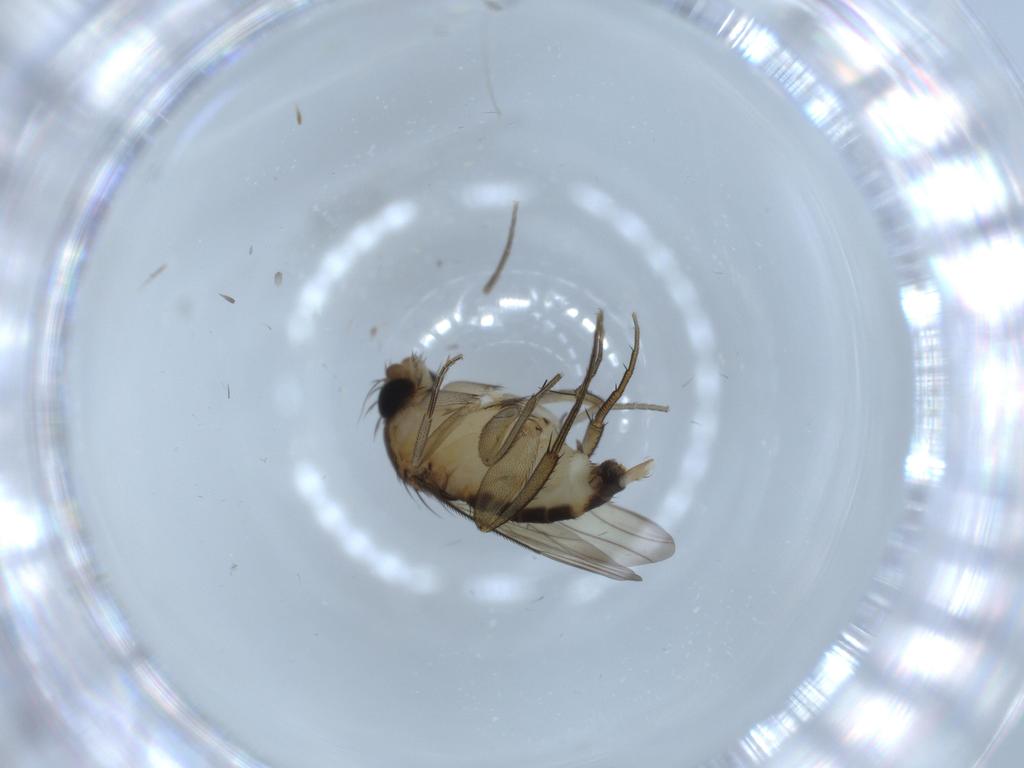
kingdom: Animalia
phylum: Arthropoda
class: Insecta
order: Diptera
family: Phoridae
